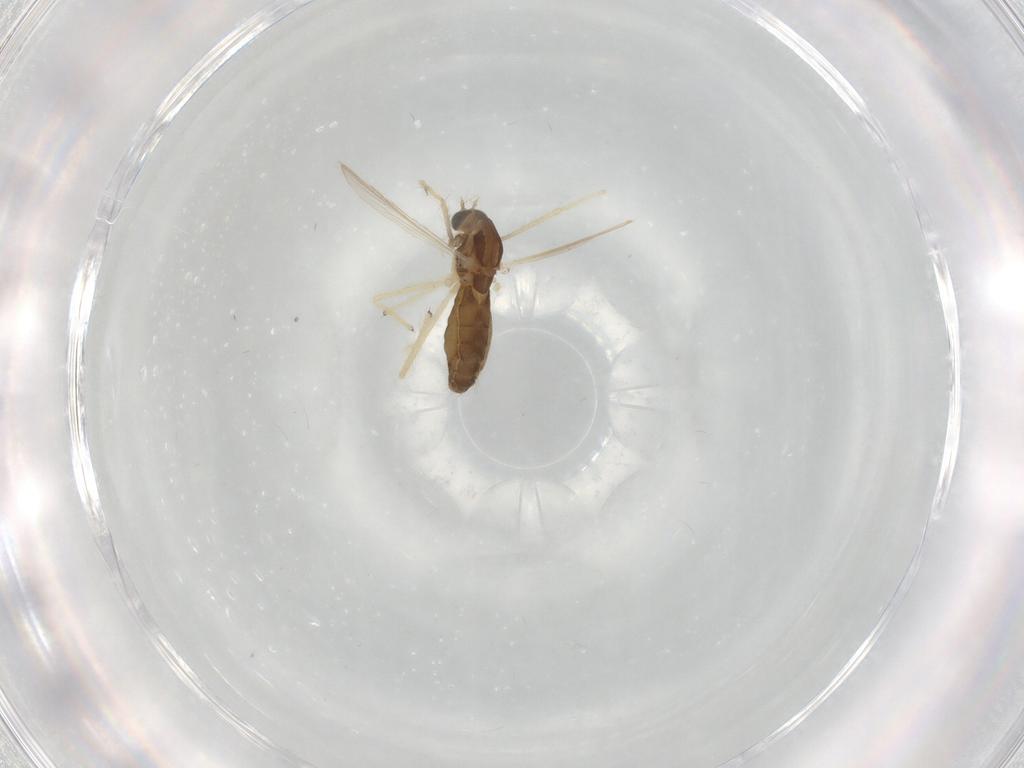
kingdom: Animalia
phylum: Arthropoda
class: Insecta
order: Diptera
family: Chironomidae
